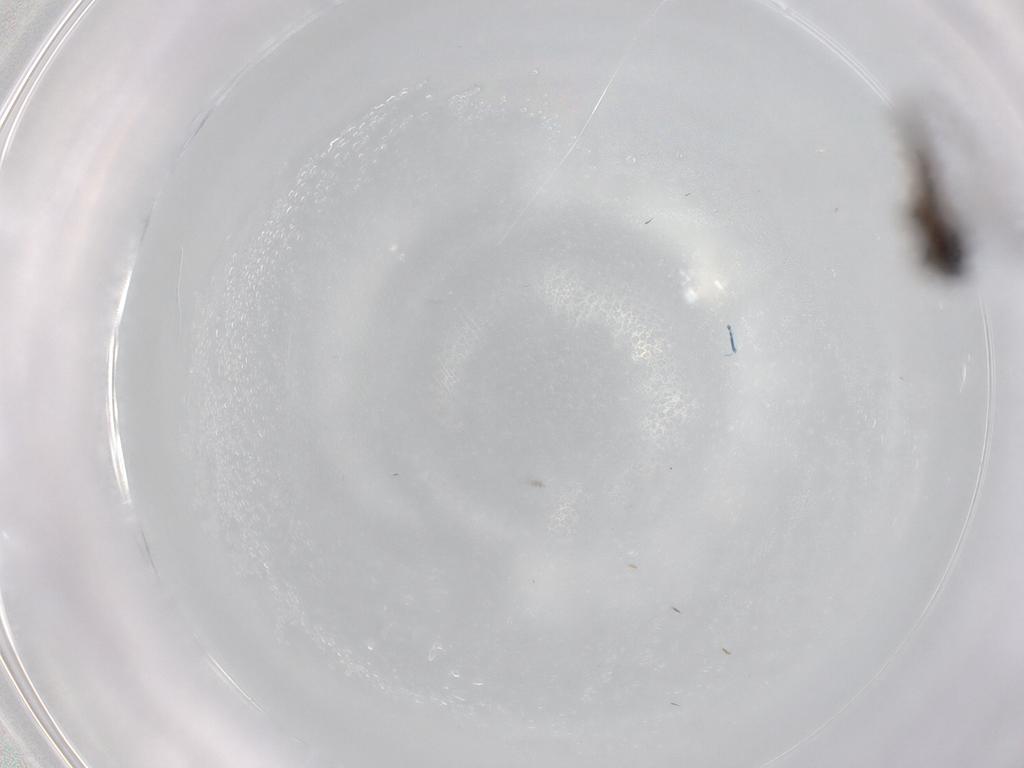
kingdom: Animalia
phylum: Arthropoda
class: Insecta
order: Diptera
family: Ceratopogonidae
